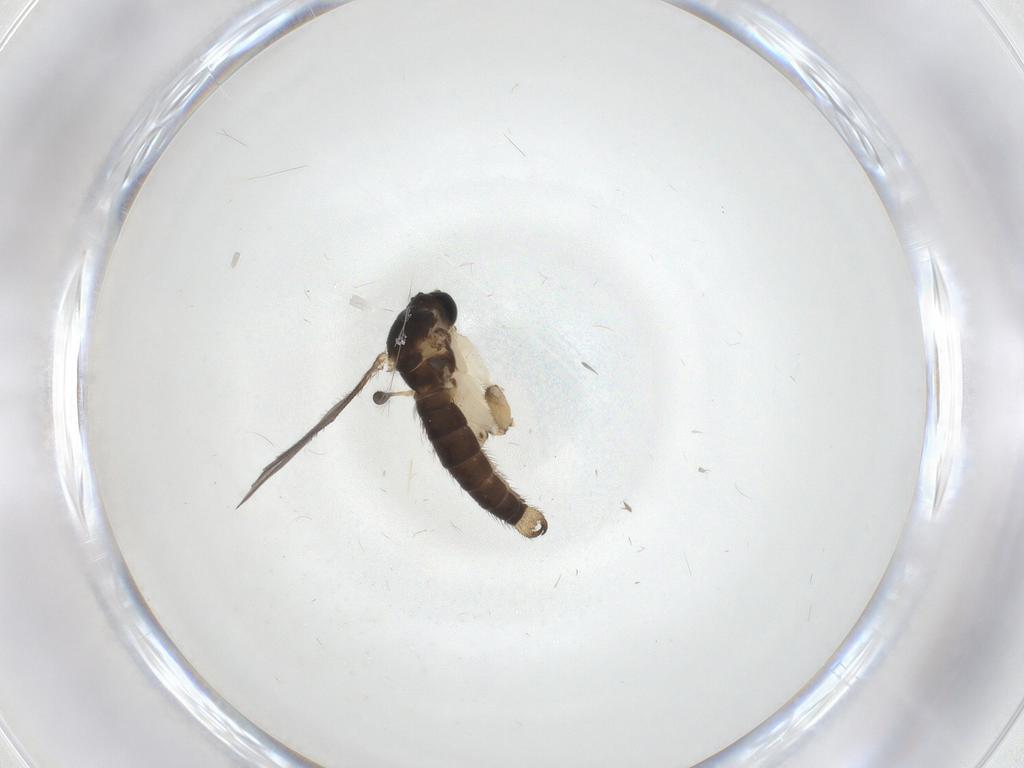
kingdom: Animalia
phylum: Arthropoda
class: Insecta
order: Diptera
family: Sciaridae
